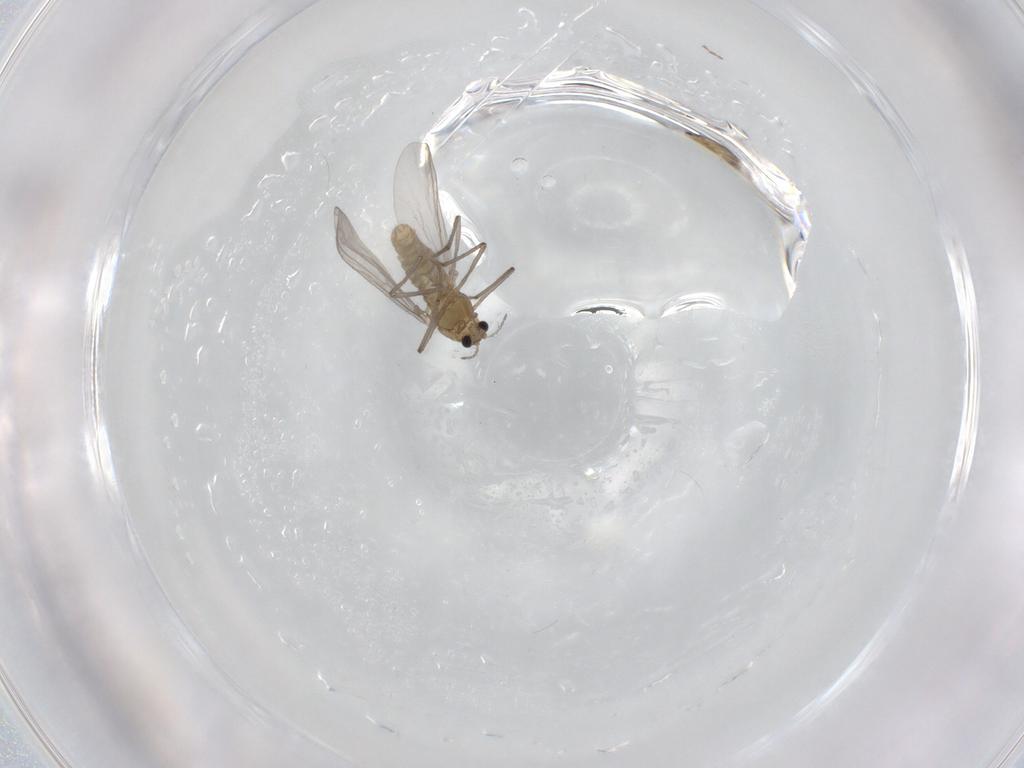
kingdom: Animalia
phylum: Arthropoda
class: Insecta
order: Diptera
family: Chironomidae
